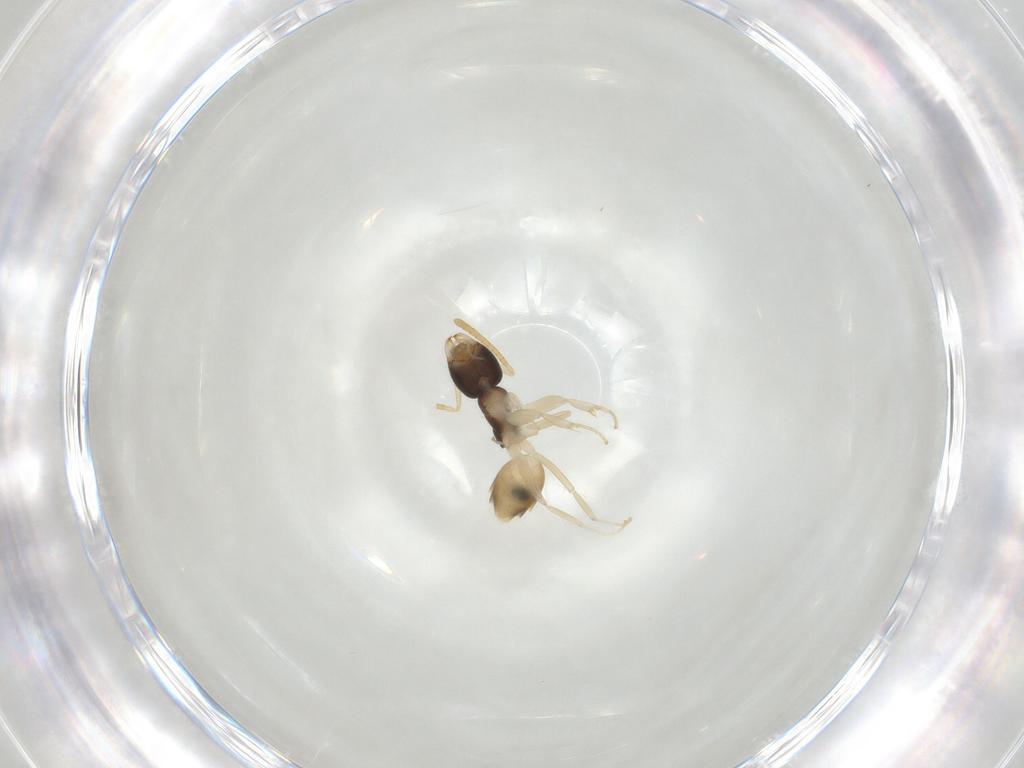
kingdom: Animalia
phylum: Arthropoda
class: Insecta
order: Hymenoptera
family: Formicidae
